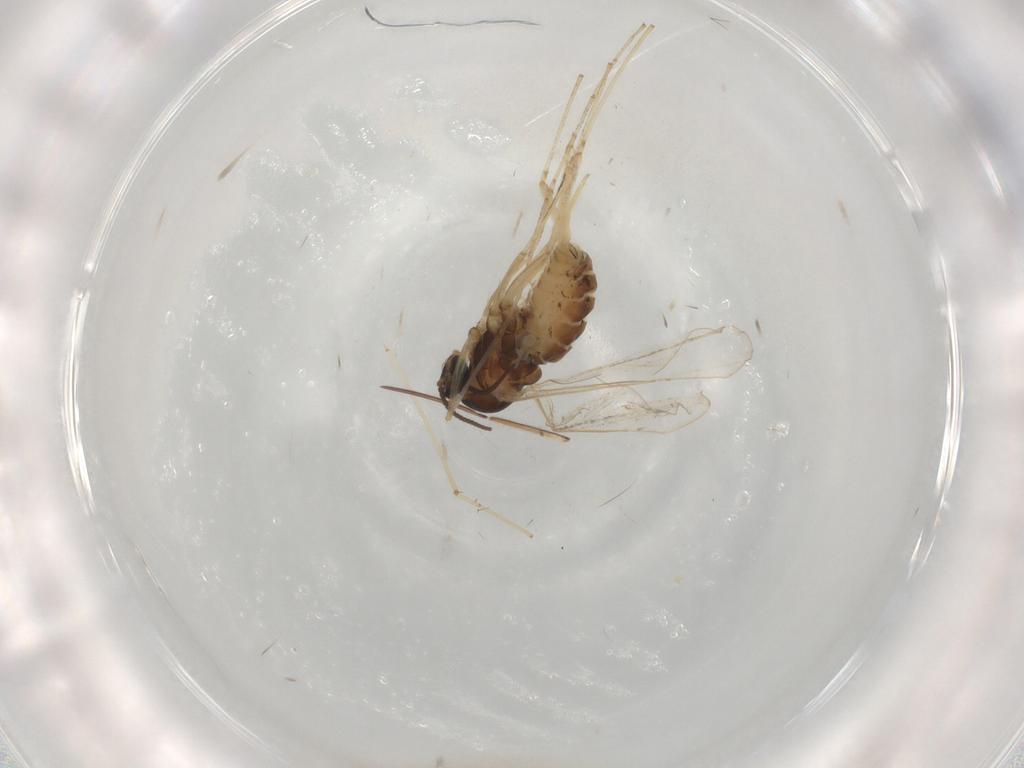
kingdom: Animalia
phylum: Arthropoda
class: Insecta
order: Diptera
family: Cecidomyiidae
